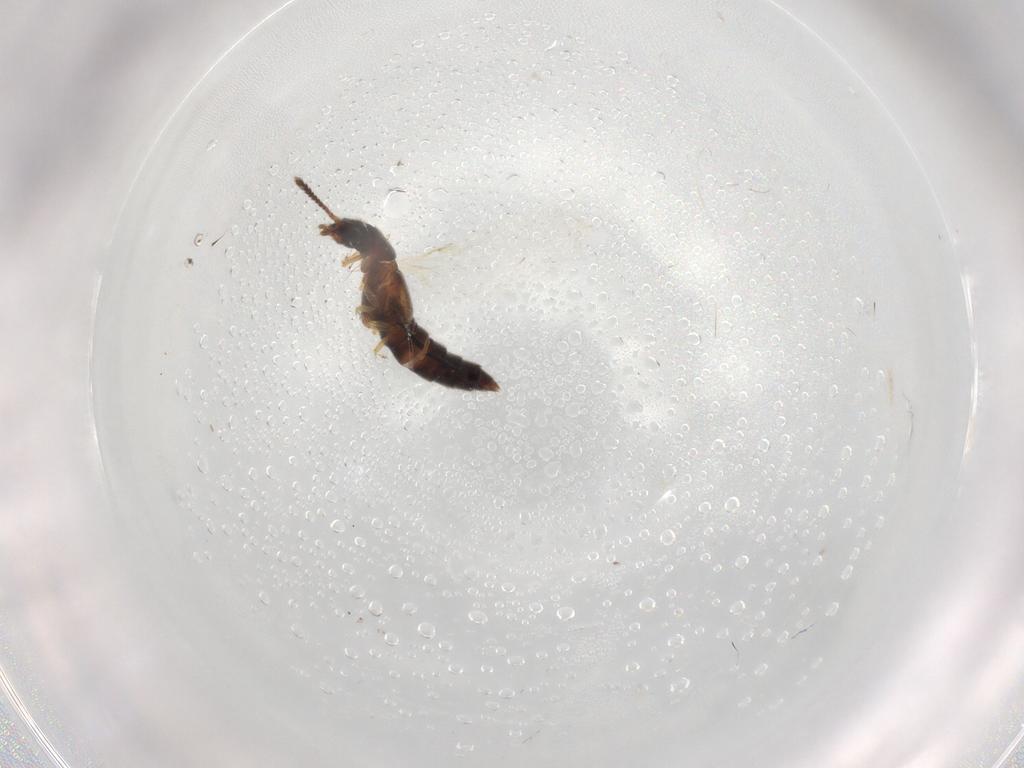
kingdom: Animalia
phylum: Arthropoda
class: Insecta
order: Coleoptera
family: Staphylinidae
